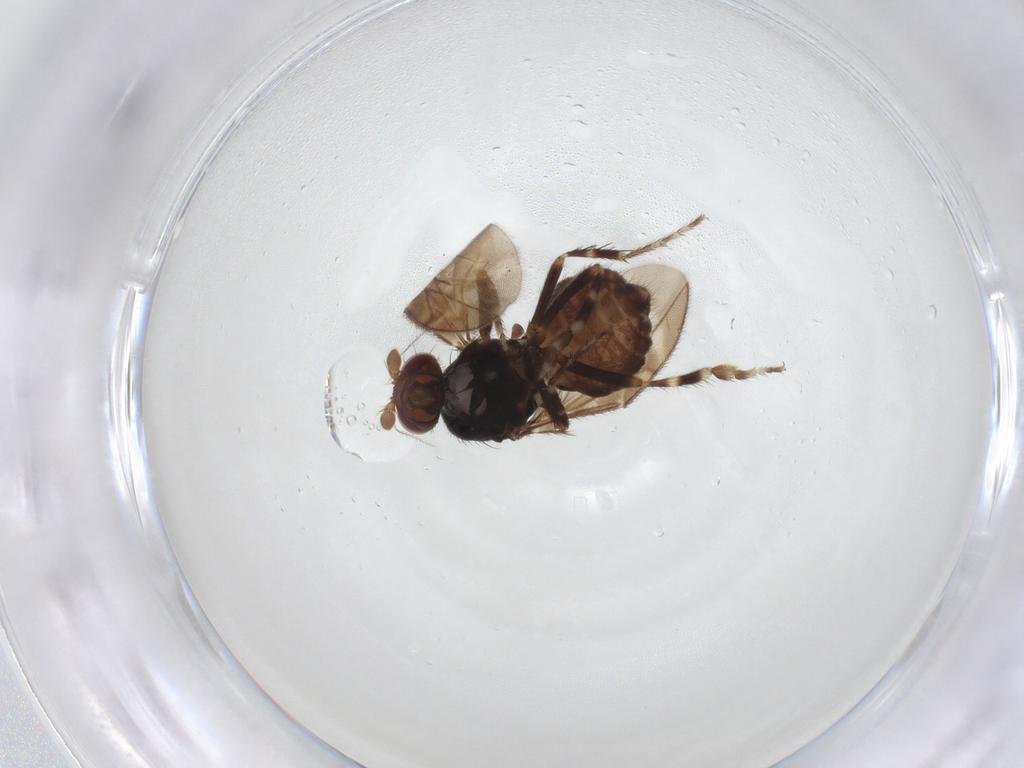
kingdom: Animalia
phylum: Arthropoda
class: Insecta
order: Diptera
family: Sphaeroceridae
